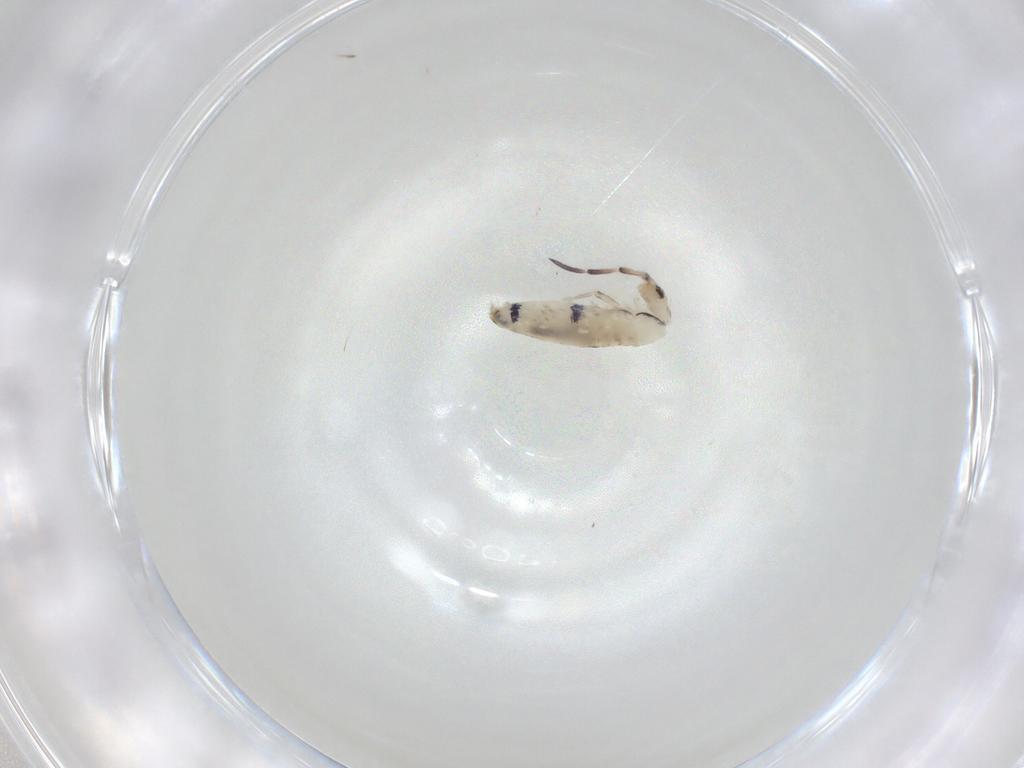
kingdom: Animalia
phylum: Arthropoda
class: Collembola
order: Entomobryomorpha
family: Entomobryidae
